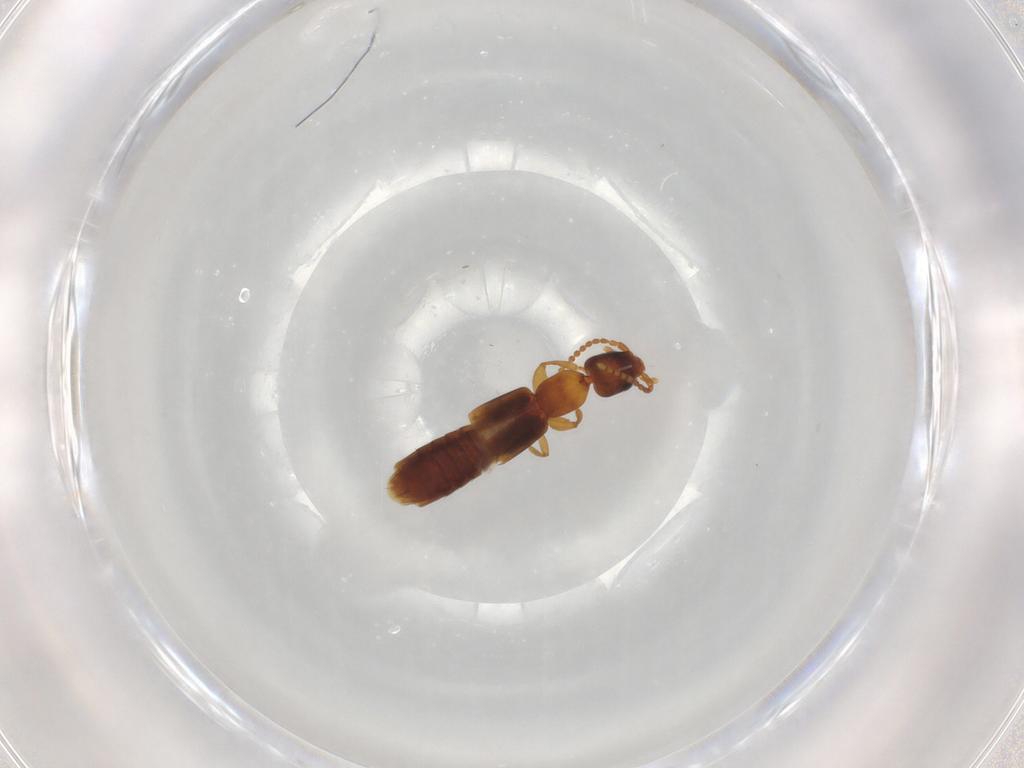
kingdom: Animalia
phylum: Arthropoda
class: Insecta
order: Coleoptera
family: Staphylinidae
